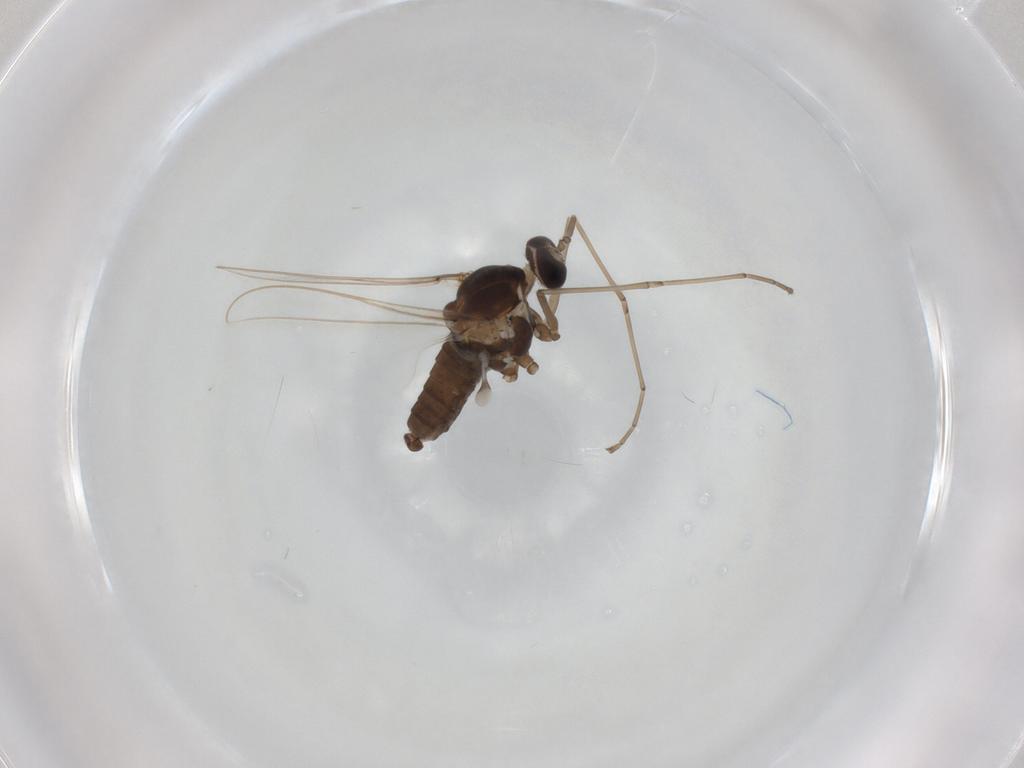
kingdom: Animalia
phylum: Arthropoda
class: Insecta
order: Diptera
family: Cecidomyiidae
